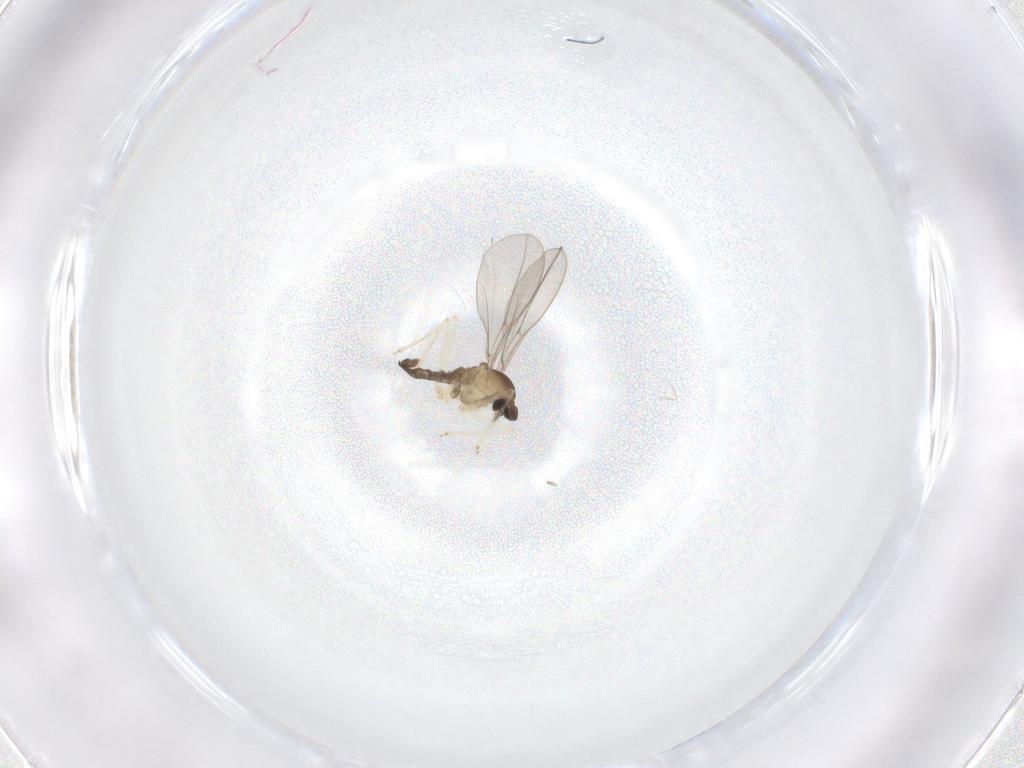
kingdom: Animalia
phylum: Arthropoda
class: Insecta
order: Diptera
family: Cecidomyiidae
